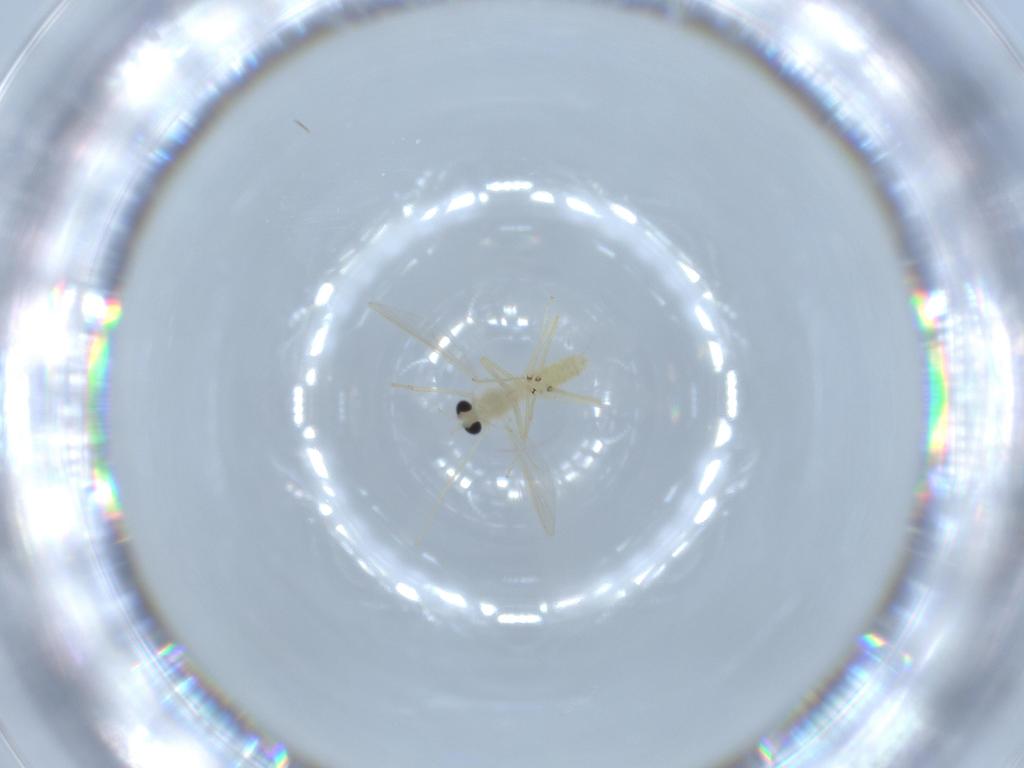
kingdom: Animalia
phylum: Arthropoda
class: Insecta
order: Diptera
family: Chironomidae
